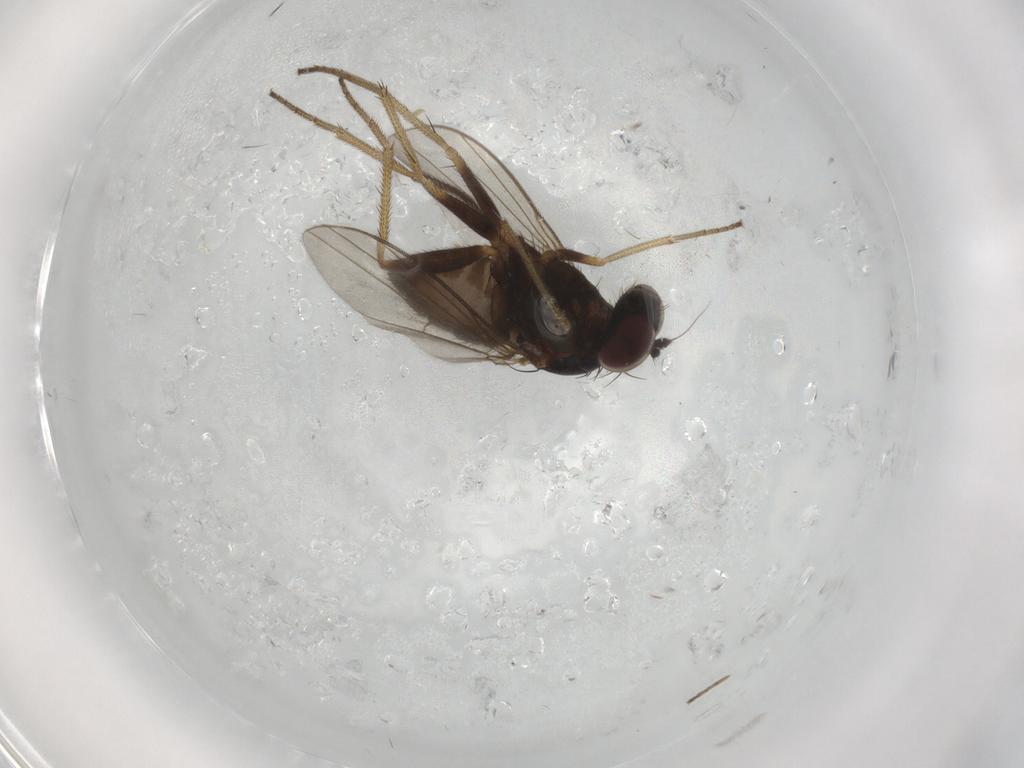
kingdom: Animalia
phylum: Arthropoda
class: Insecta
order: Diptera
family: Dolichopodidae
